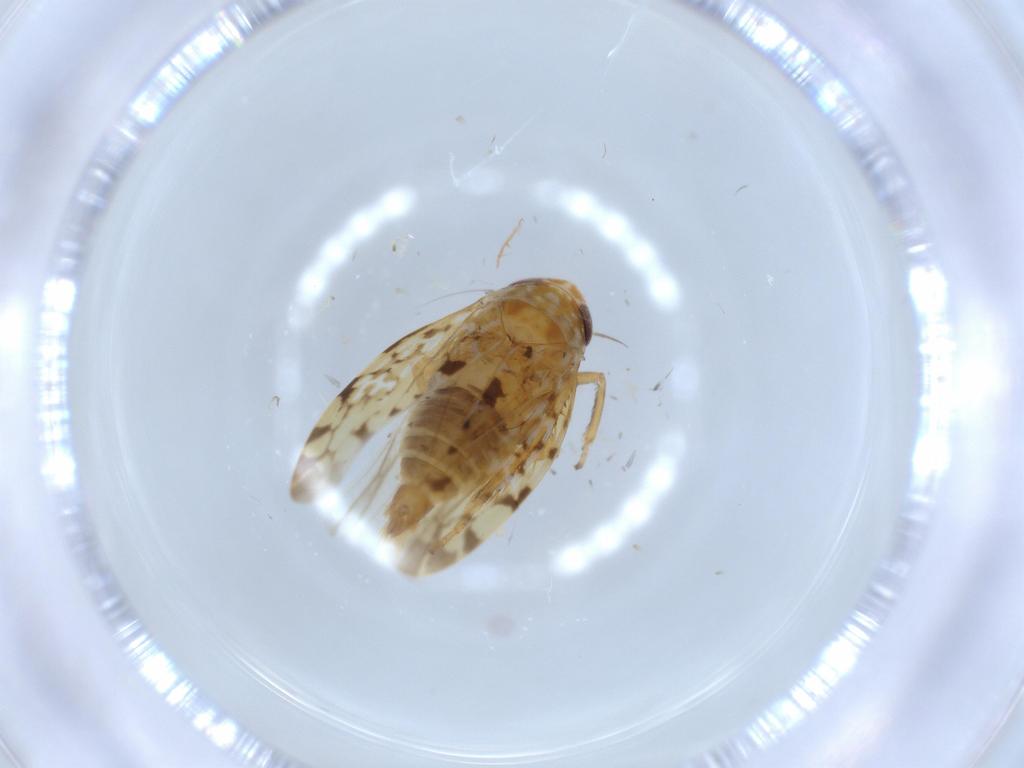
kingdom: Animalia
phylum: Arthropoda
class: Insecta
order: Hemiptera
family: Cicadellidae
